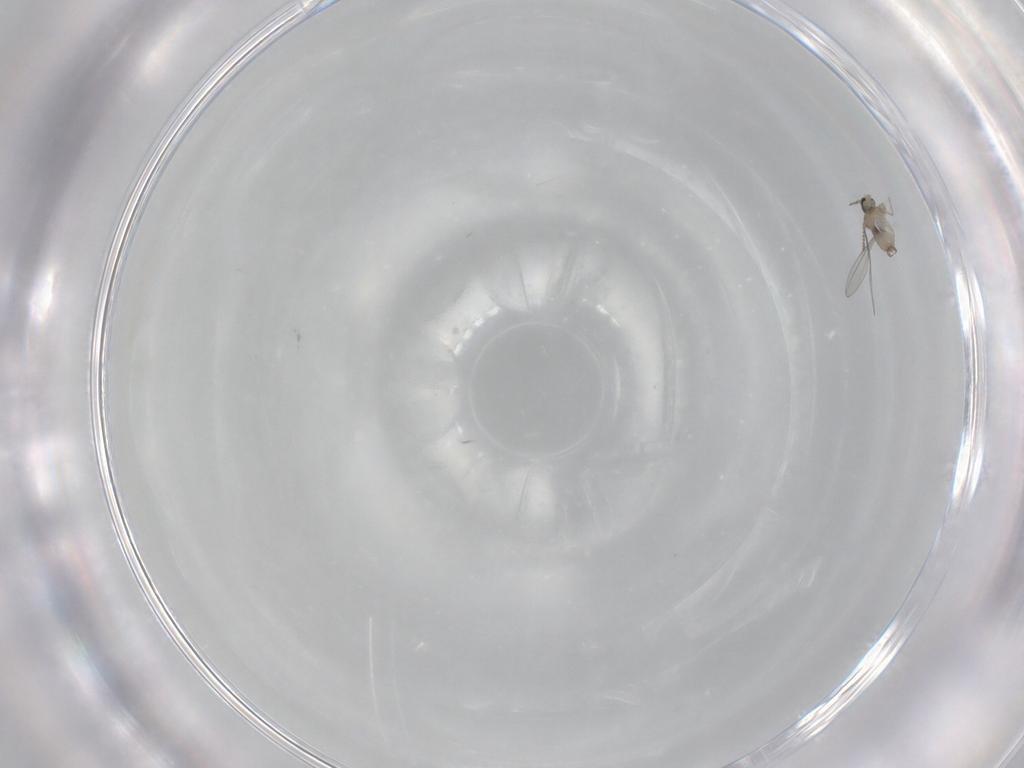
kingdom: Animalia
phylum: Arthropoda
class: Insecta
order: Diptera
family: Cecidomyiidae
